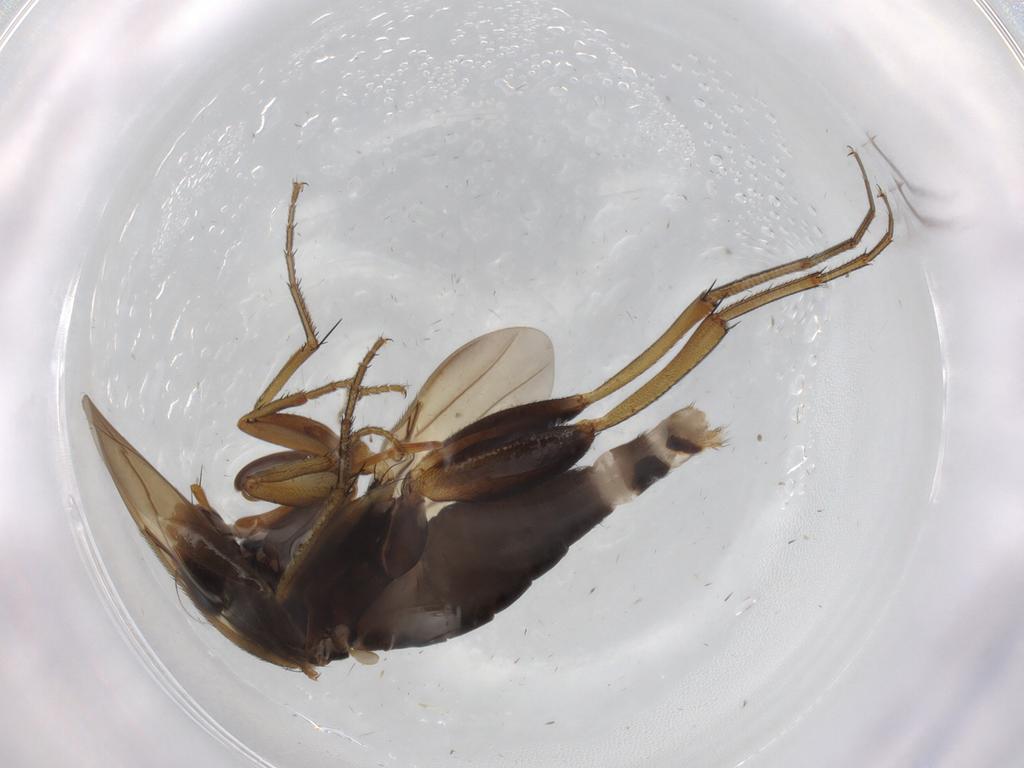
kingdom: Animalia
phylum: Arthropoda
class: Insecta
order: Diptera
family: Phoridae
